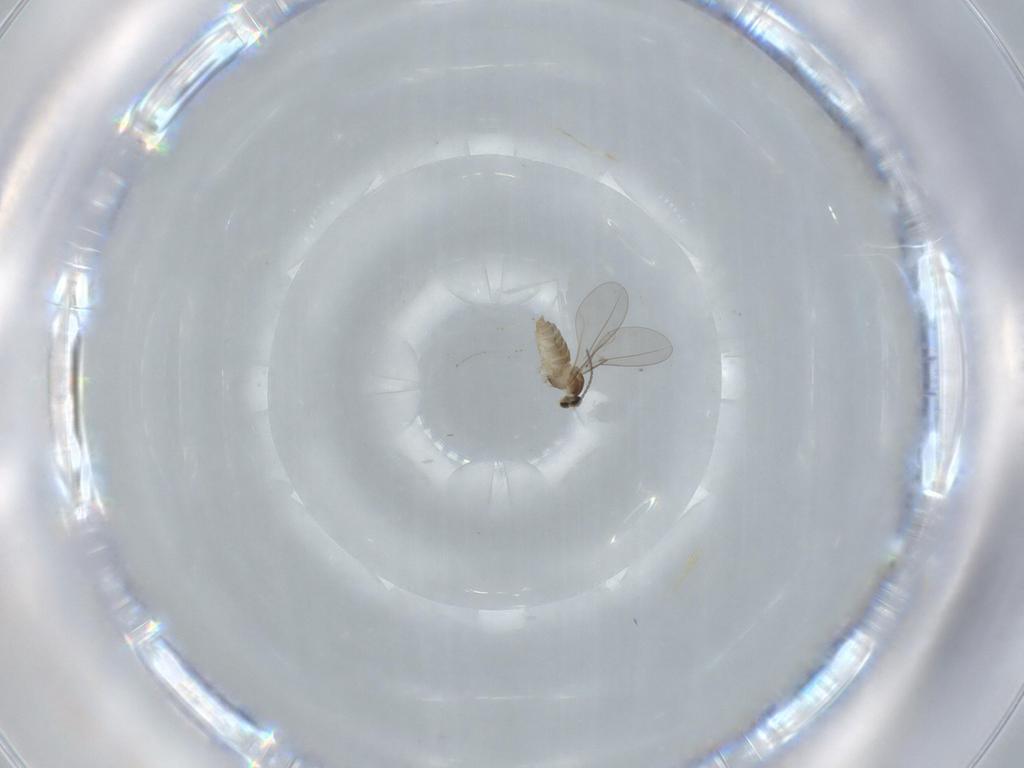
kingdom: Animalia
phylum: Arthropoda
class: Insecta
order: Diptera
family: Cecidomyiidae
